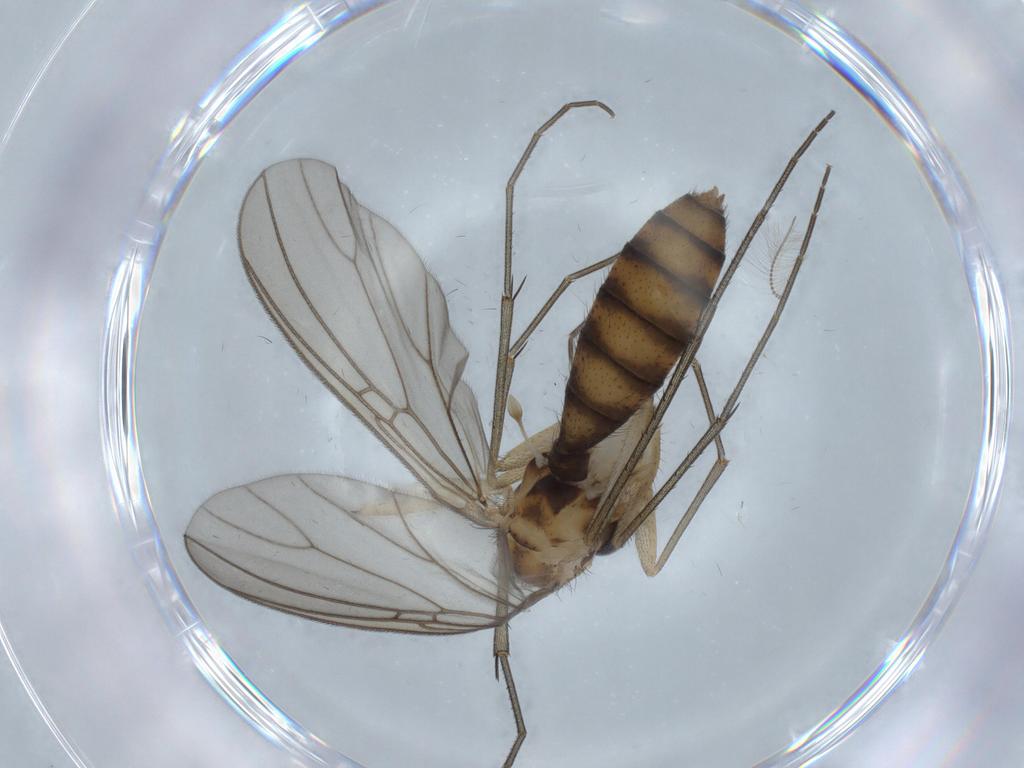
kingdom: Animalia
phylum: Arthropoda
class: Insecta
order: Diptera
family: Mycetophilidae
